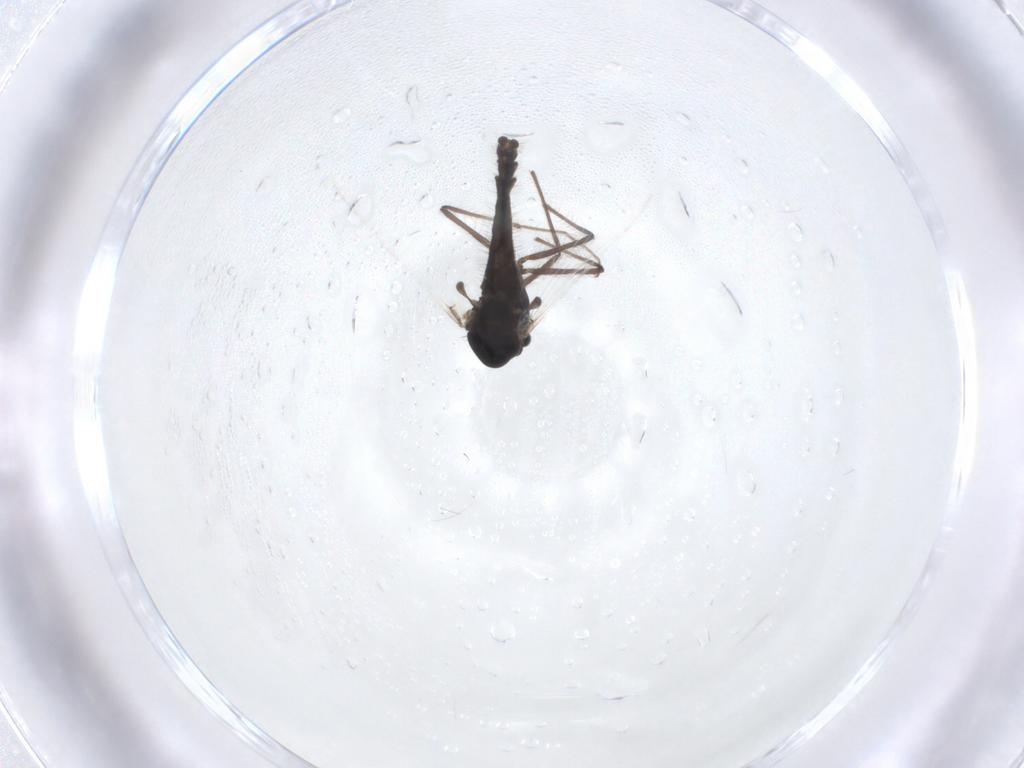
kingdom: Animalia
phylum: Arthropoda
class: Insecta
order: Diptera
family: Chironomidae
